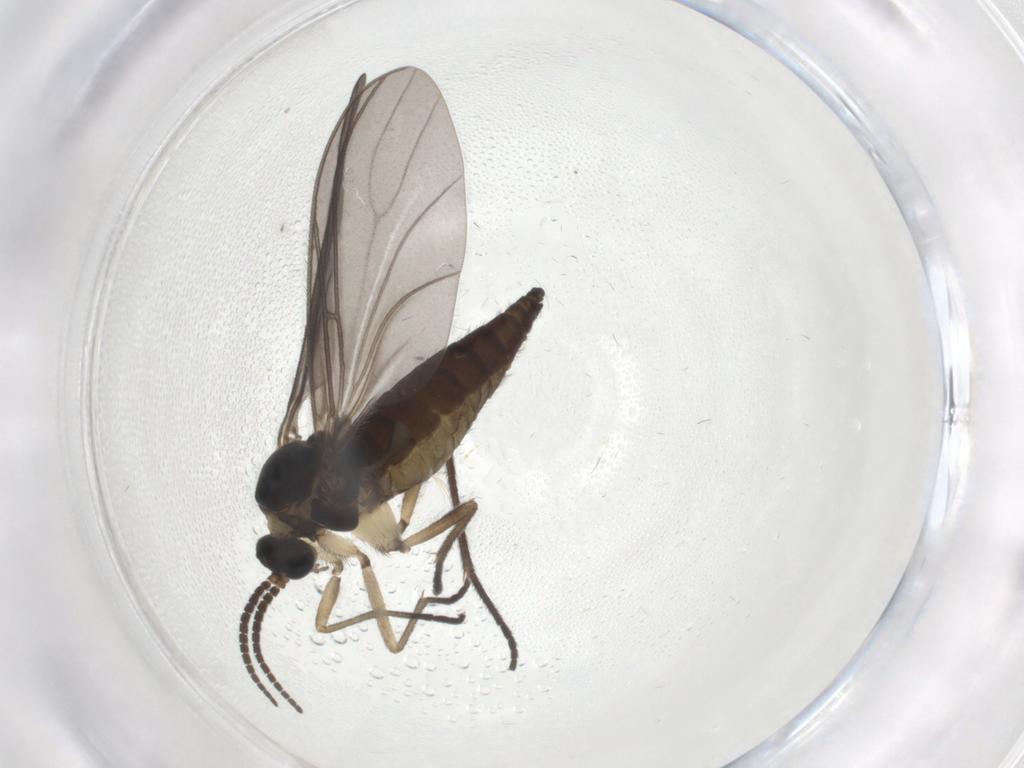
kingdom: Animalia
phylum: Arthropoda
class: Insecta
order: Diptera
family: Sciaridae
